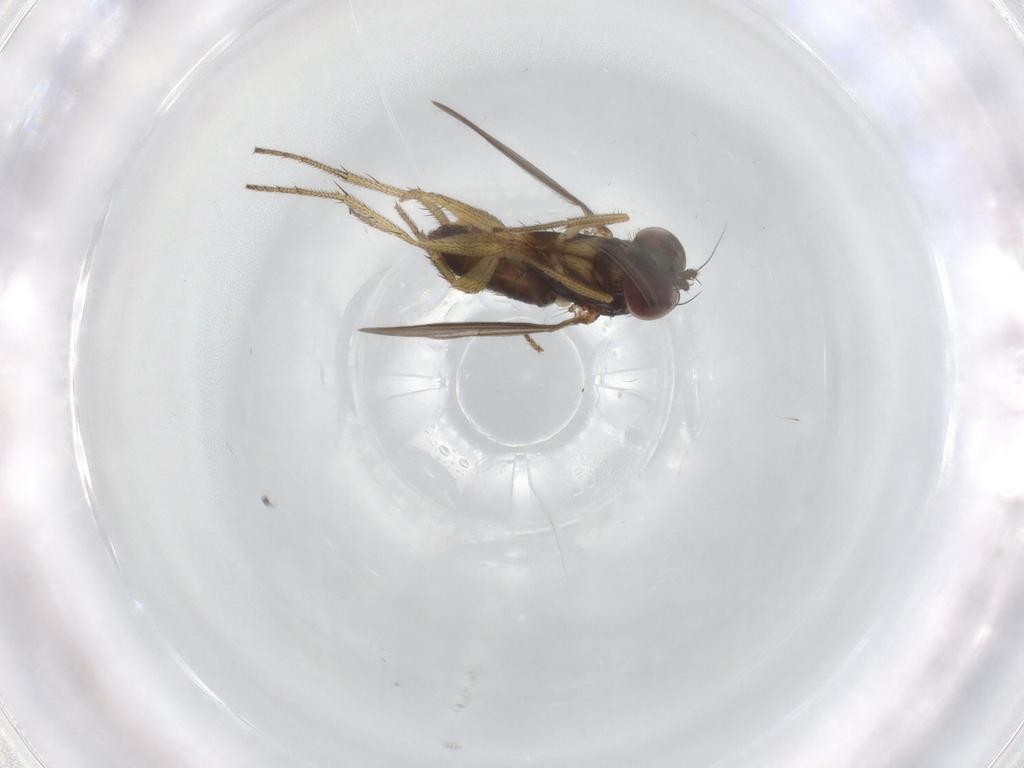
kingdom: Animalia
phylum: Arthropoda
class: Insecta
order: Diptera
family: Dolichopodidae
